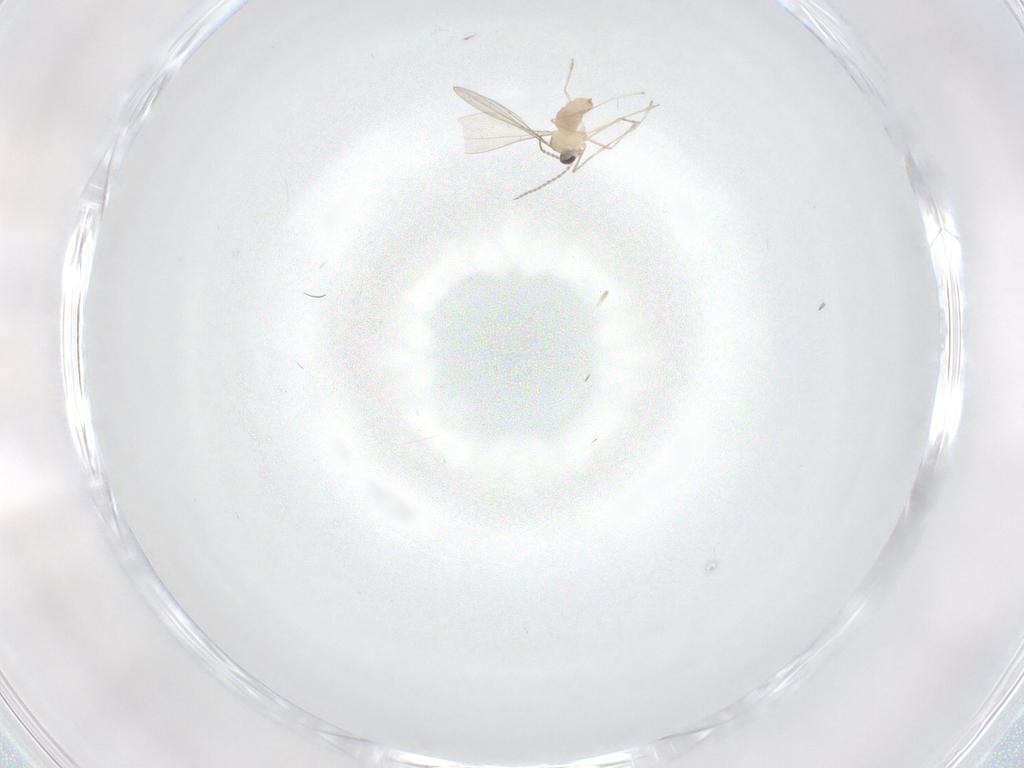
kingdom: Animalia
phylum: Arthropoda
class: Insecta
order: Diptera
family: Cecidomyiidae
